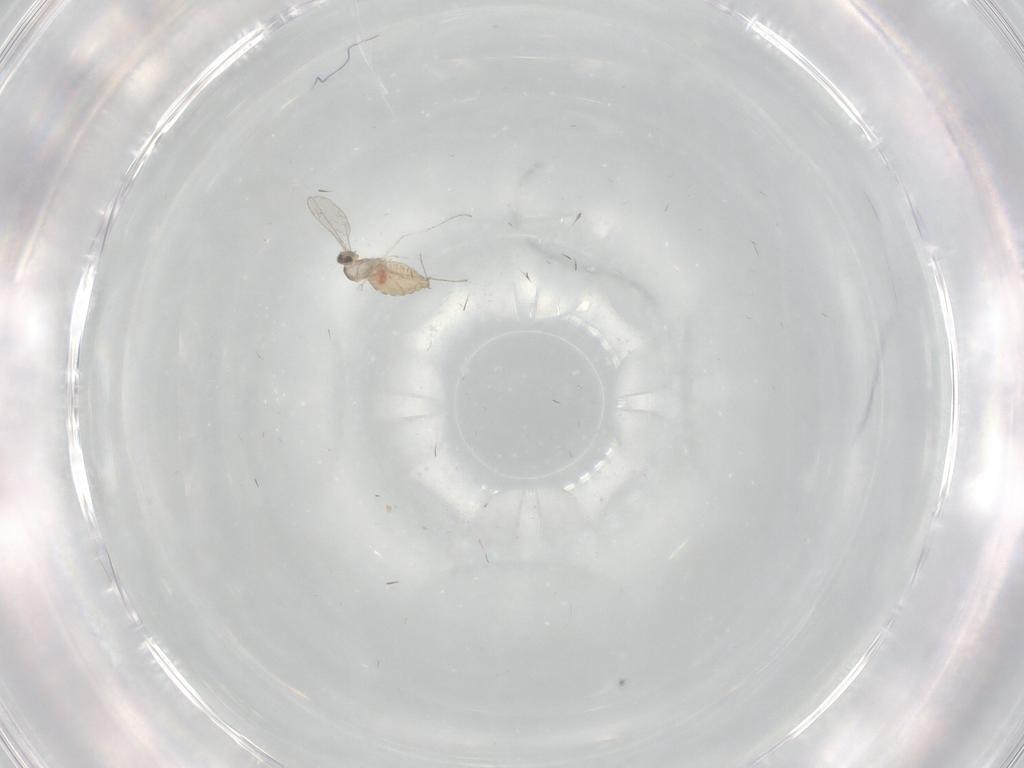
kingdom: Animalia
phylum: Arthropoda
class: Insecta
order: Diptera
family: Cecidomyiidae
